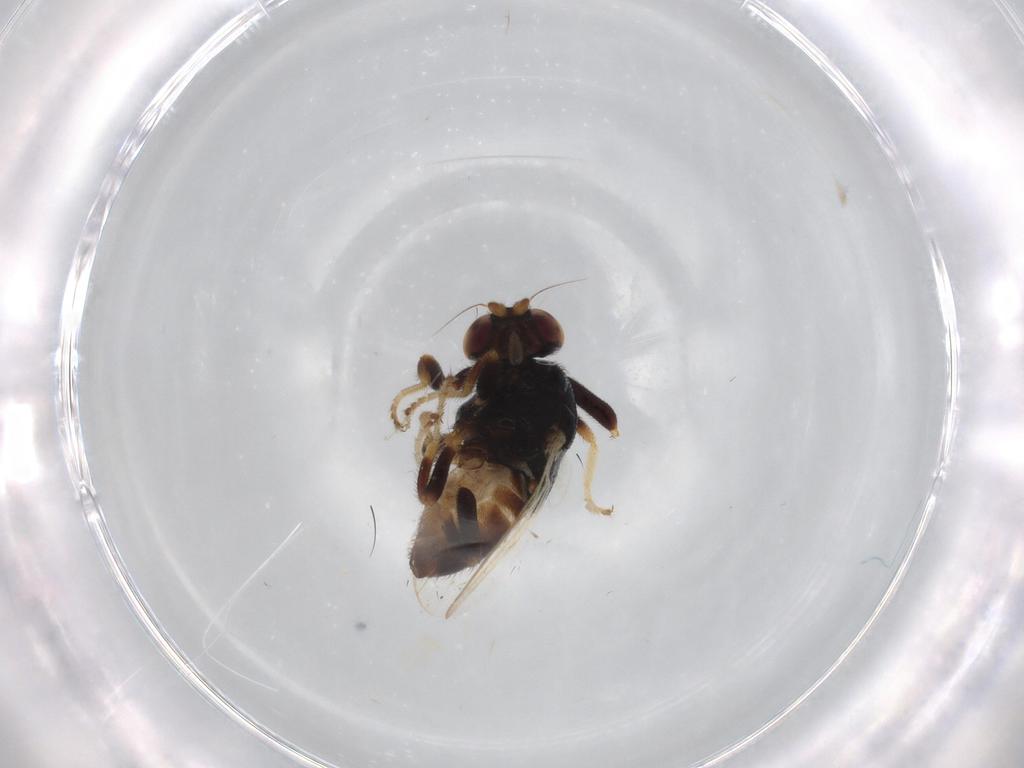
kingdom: Animalia
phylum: Arthropoda
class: Insecta
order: Diptera
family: Chloropidae
